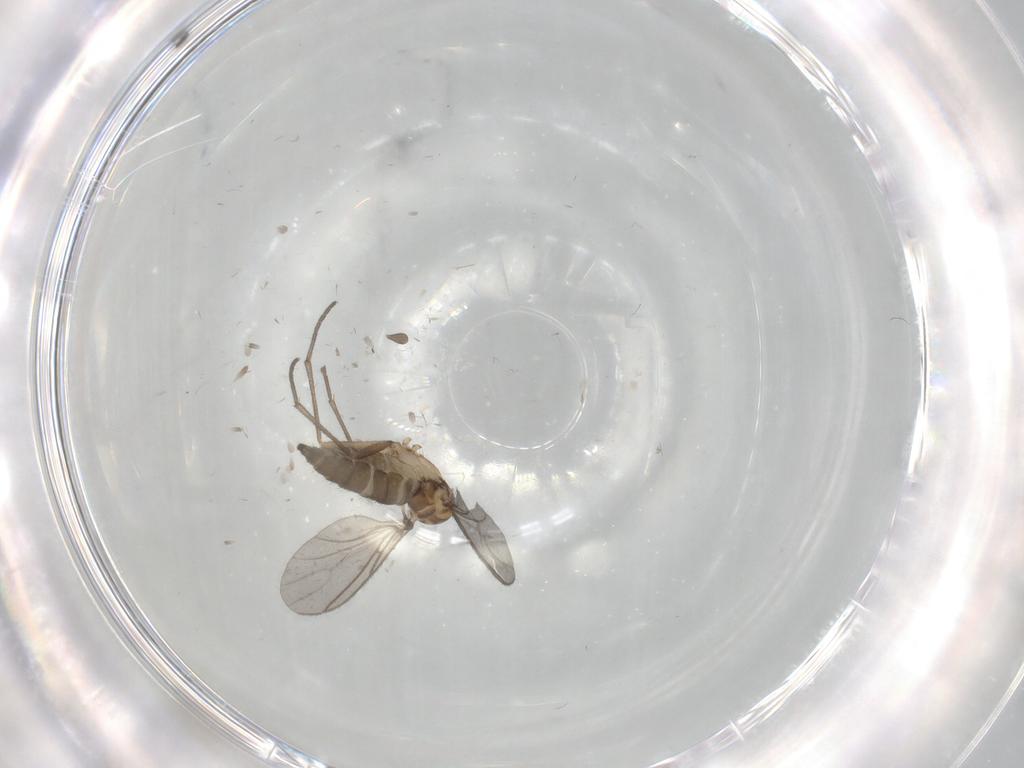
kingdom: Animalia
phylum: Arthropoda
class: Insecta
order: Diptera
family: Sciaridae
